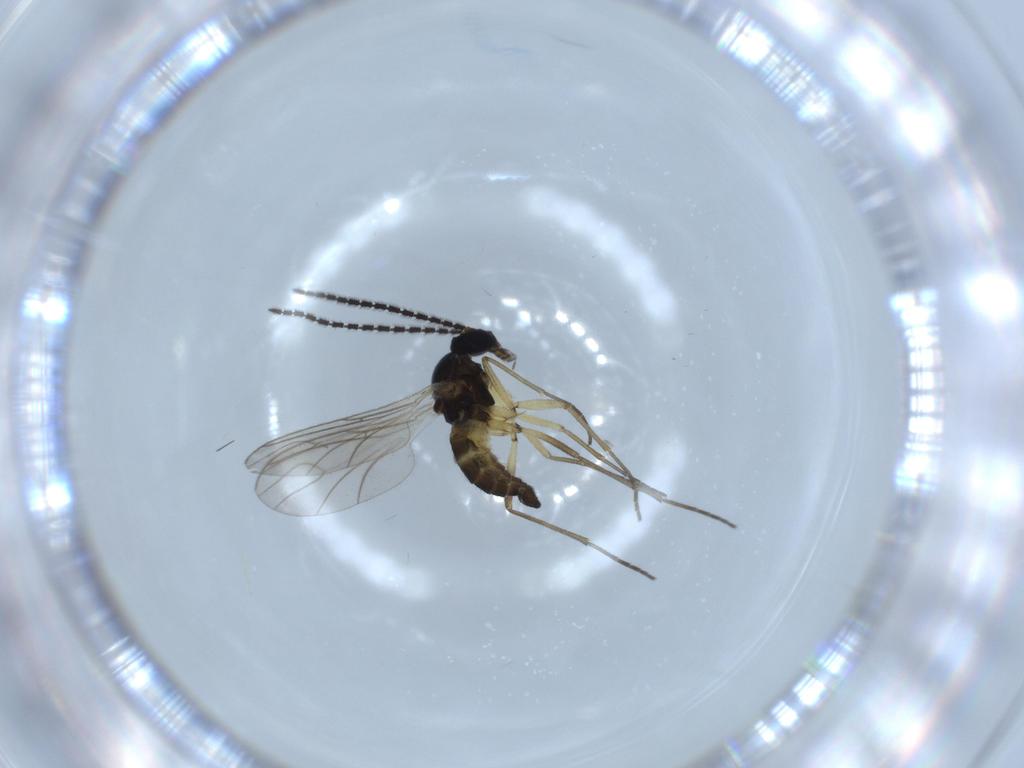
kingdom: Animalia
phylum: Arthropoda
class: Insecta
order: Diptera
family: Sciaridae
